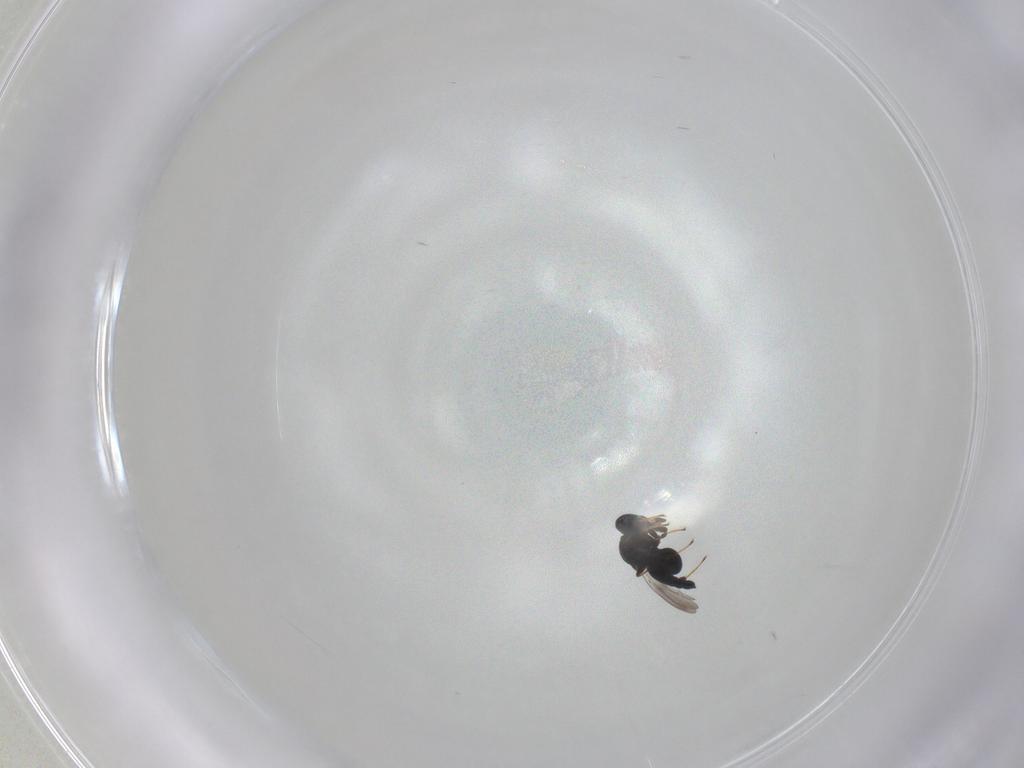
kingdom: Animalia
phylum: Arthropoda
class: Insecta
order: Hymenoptera
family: Platygastridae
